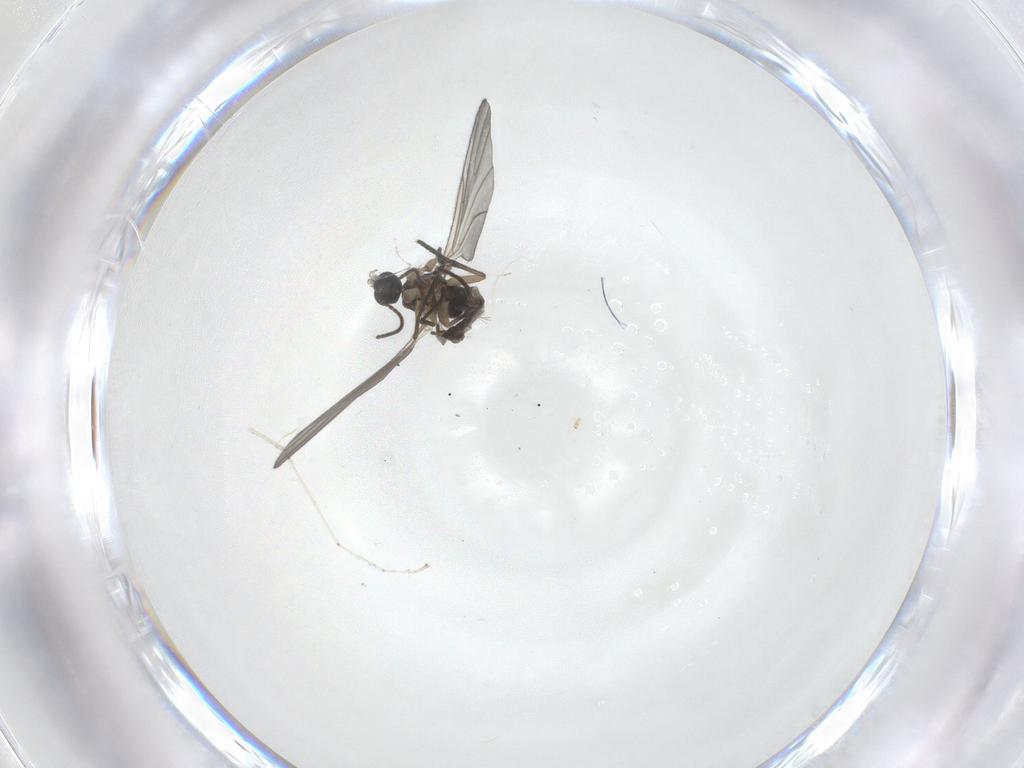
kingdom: Animalia
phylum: Arthropoda
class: Insecta
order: Diptera
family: Sciaridae
